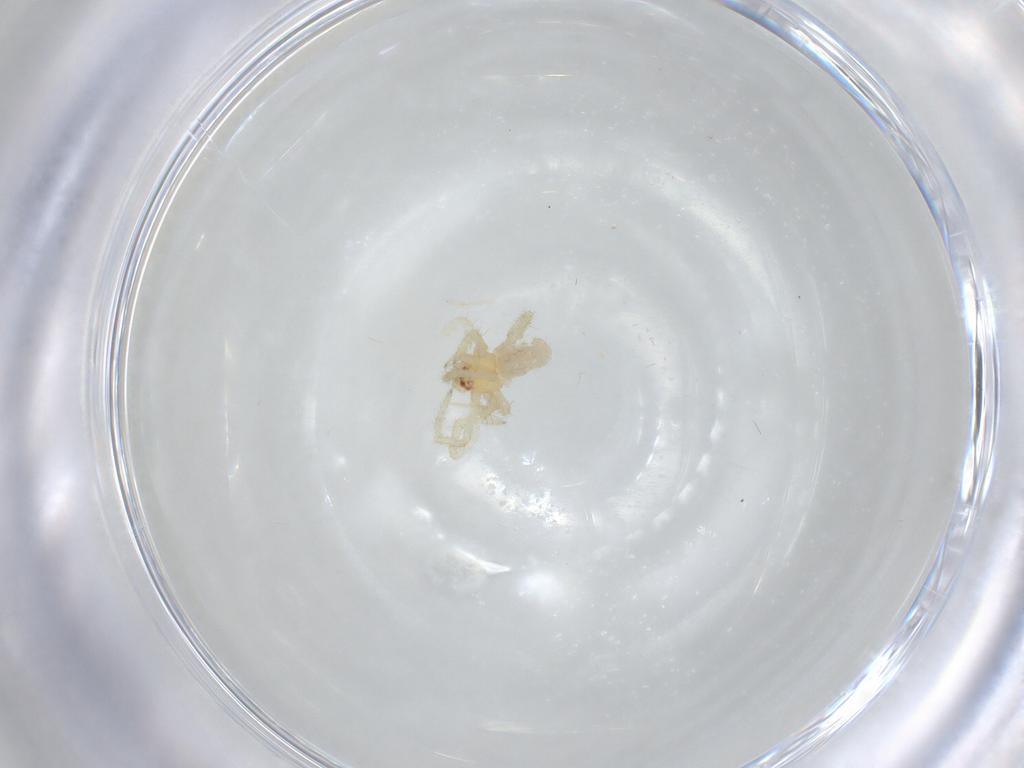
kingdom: Animalia
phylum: Arthropoda
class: Arachnida
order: Araneae
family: Theridiidae
